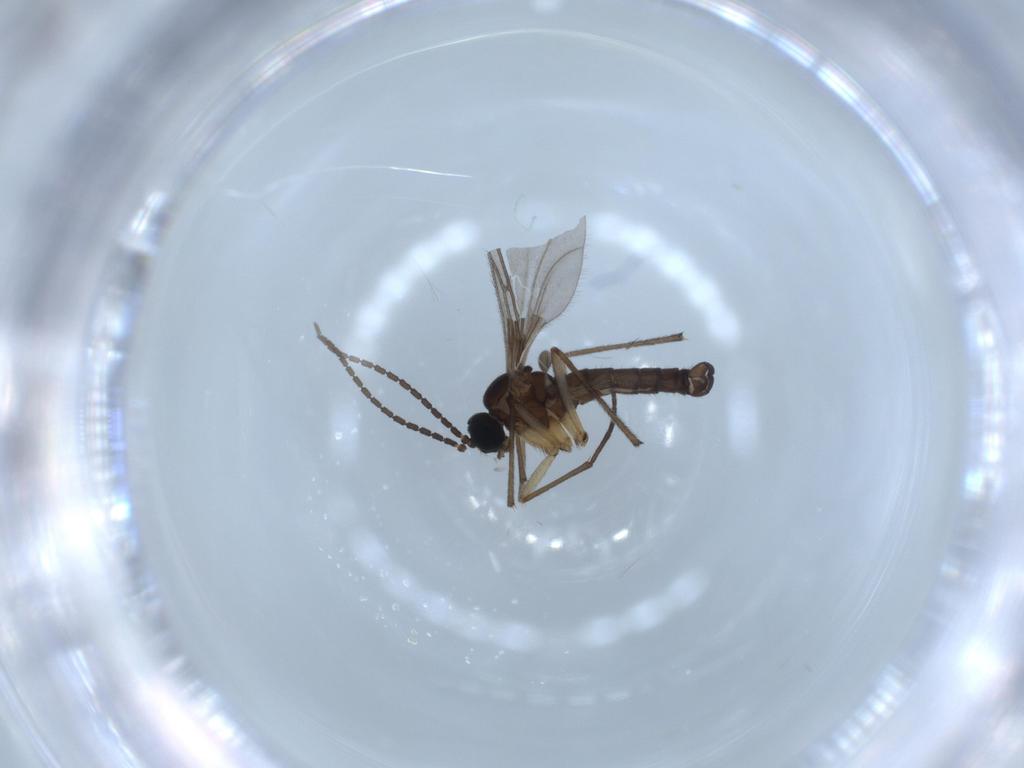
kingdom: Animalia
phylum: Arthropoda
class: Insecta
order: Diptera
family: Sciaridae
